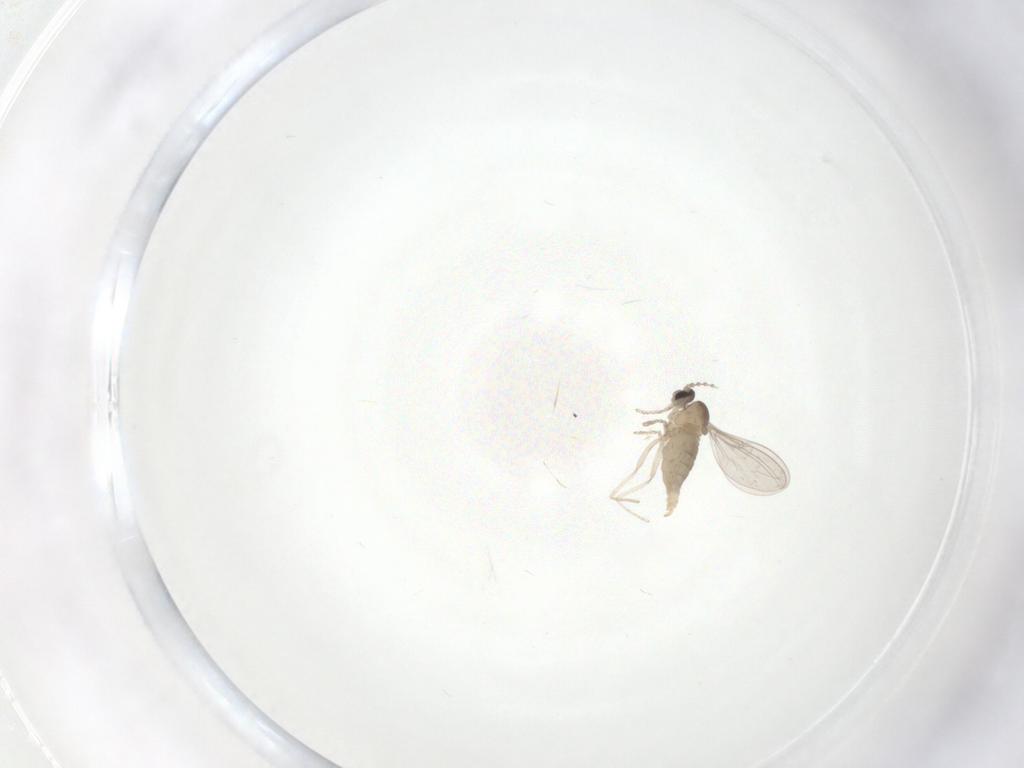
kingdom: Animalia
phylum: Arthropoda
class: Insecta
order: Diptera
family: Cecidomyiidae
